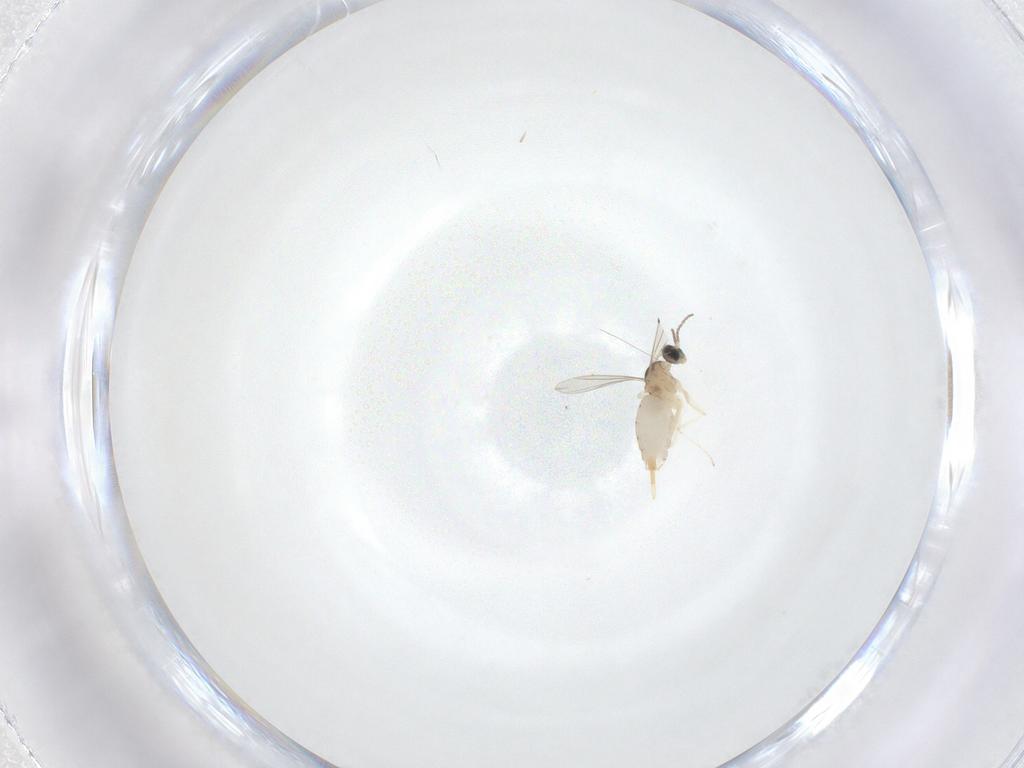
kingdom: Animalia
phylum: Arthropoda
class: Insecta
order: Diptera
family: Cecidomyiidae
